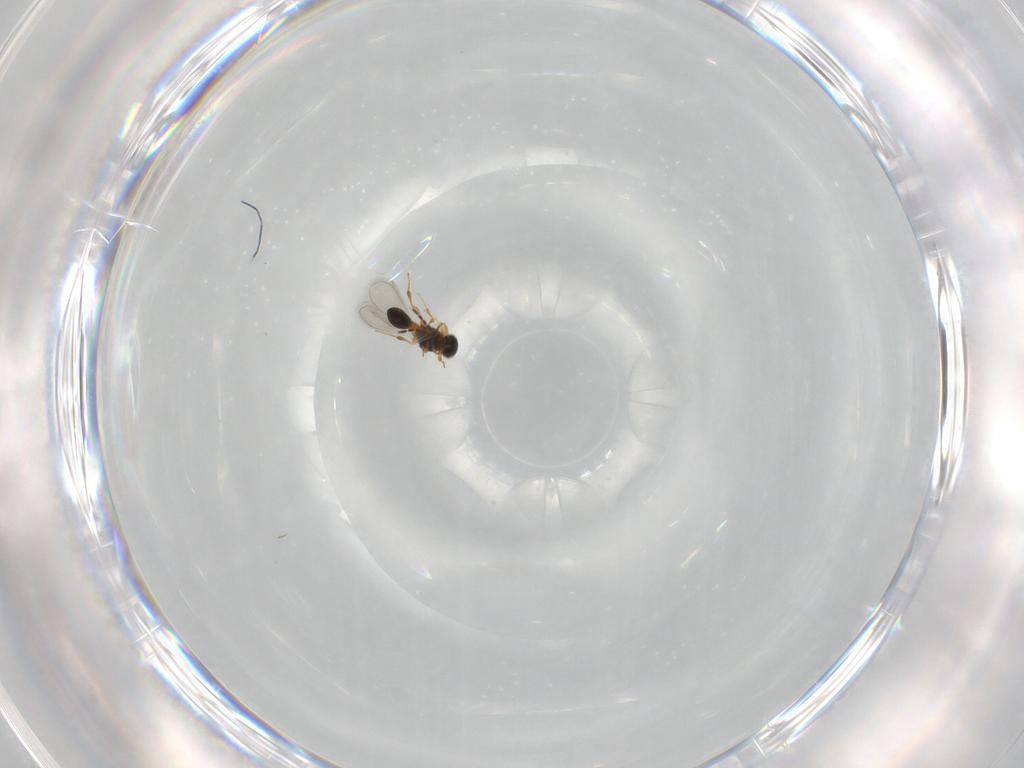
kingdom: Animalia
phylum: Arthropoda
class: Insecta
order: Hymenoptera
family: Platygastridae
